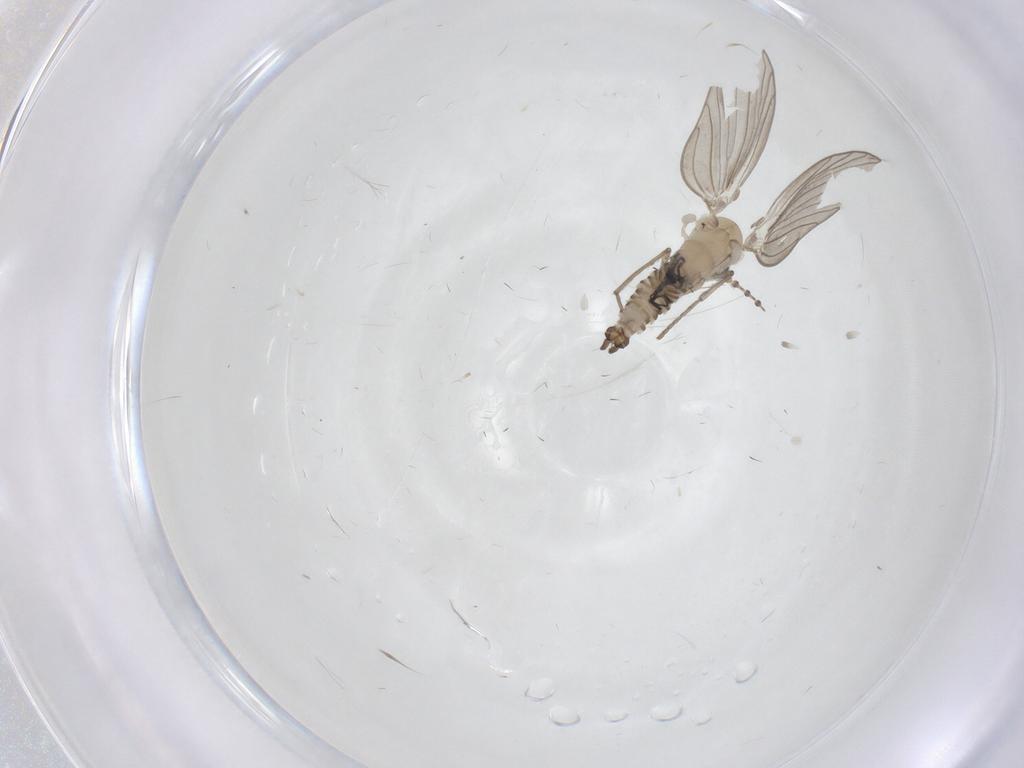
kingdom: Animalia
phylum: Arthropoda
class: Insecta
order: Diptera
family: Psychodidae
